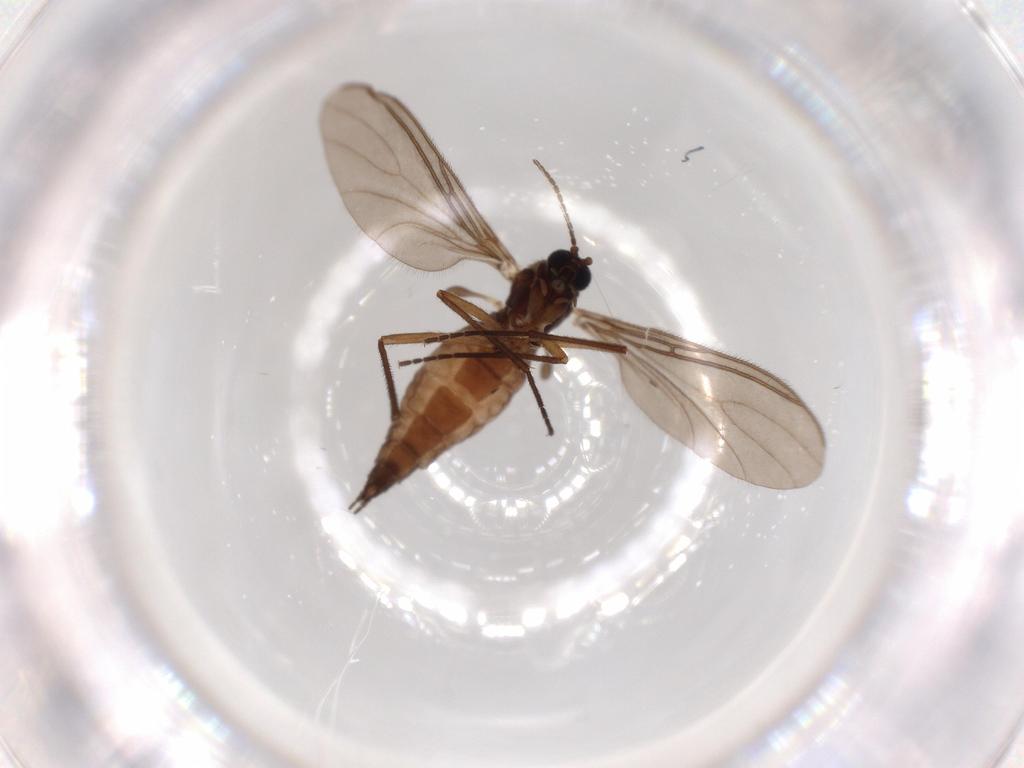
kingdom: Animalia
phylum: Arthropoda
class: Insecta
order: Diptera
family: Sciaridae
